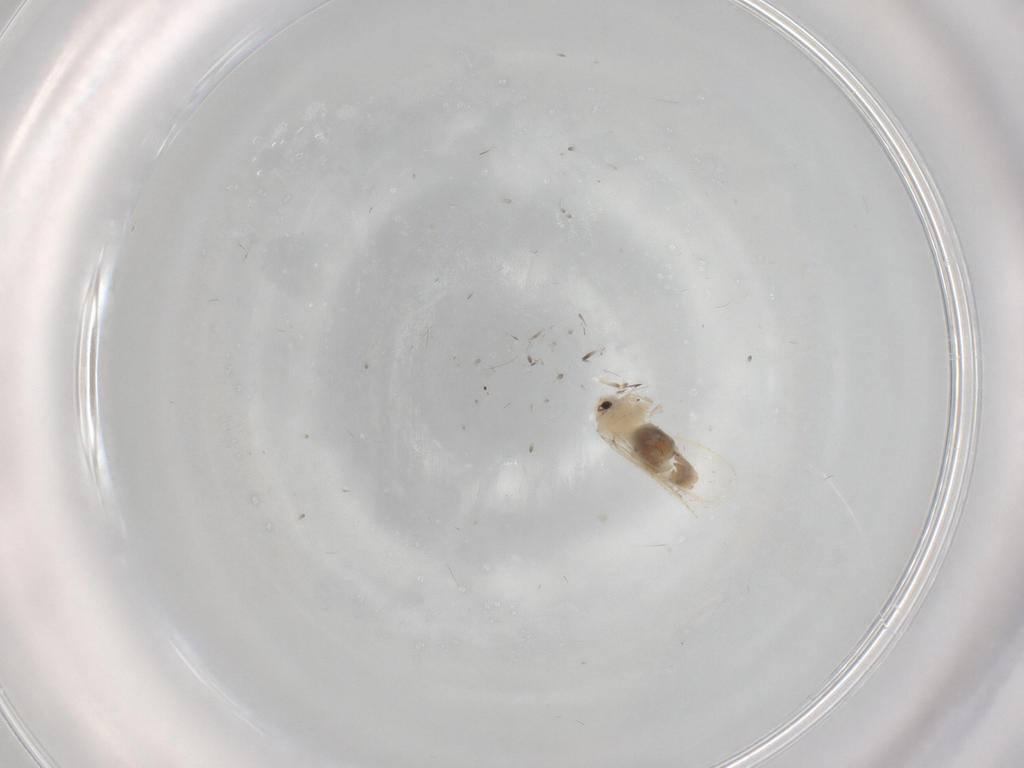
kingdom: Animalia
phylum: Arthropoda
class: Insecta
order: Hemiptera
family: Aleyrodidae
